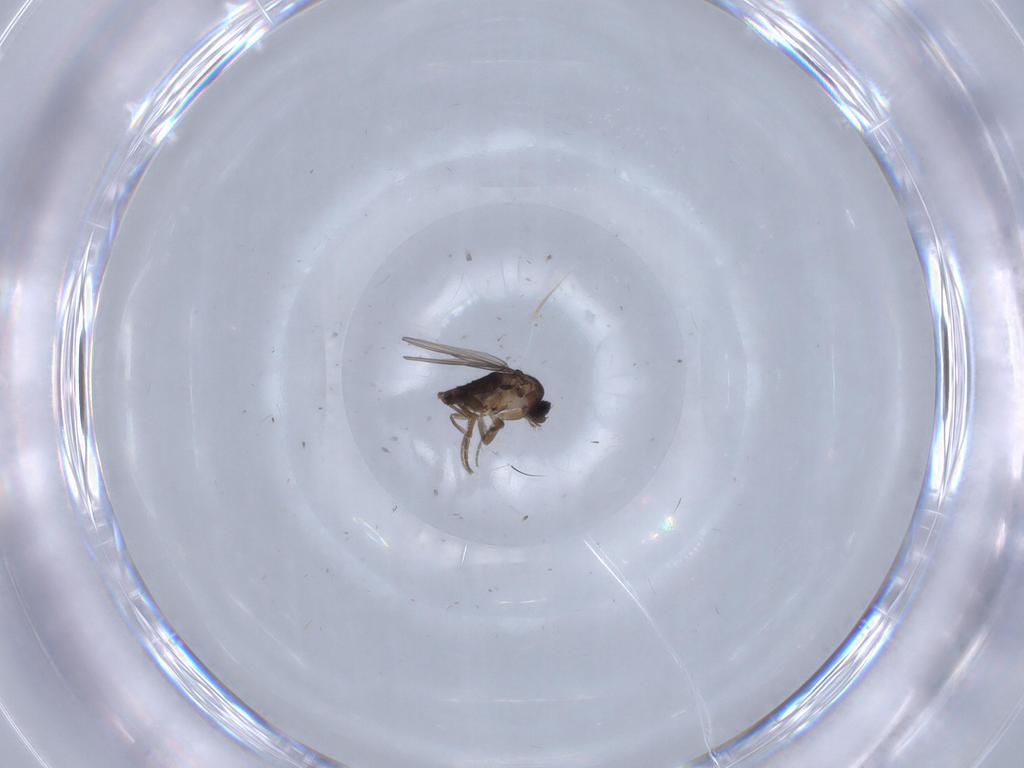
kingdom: Animalia
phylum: Arthropoda
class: Insecta
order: Diptera
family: Phoridae
